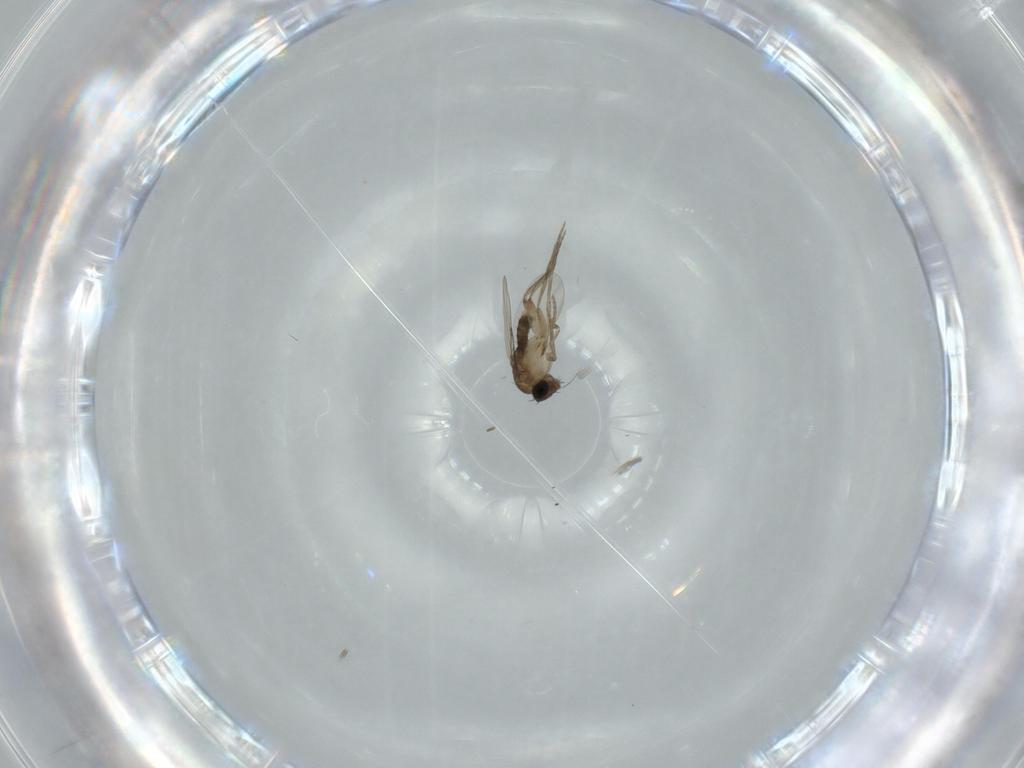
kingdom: Animalia
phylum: Arthropoda
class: Insecta
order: Diptera
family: Phoridae
